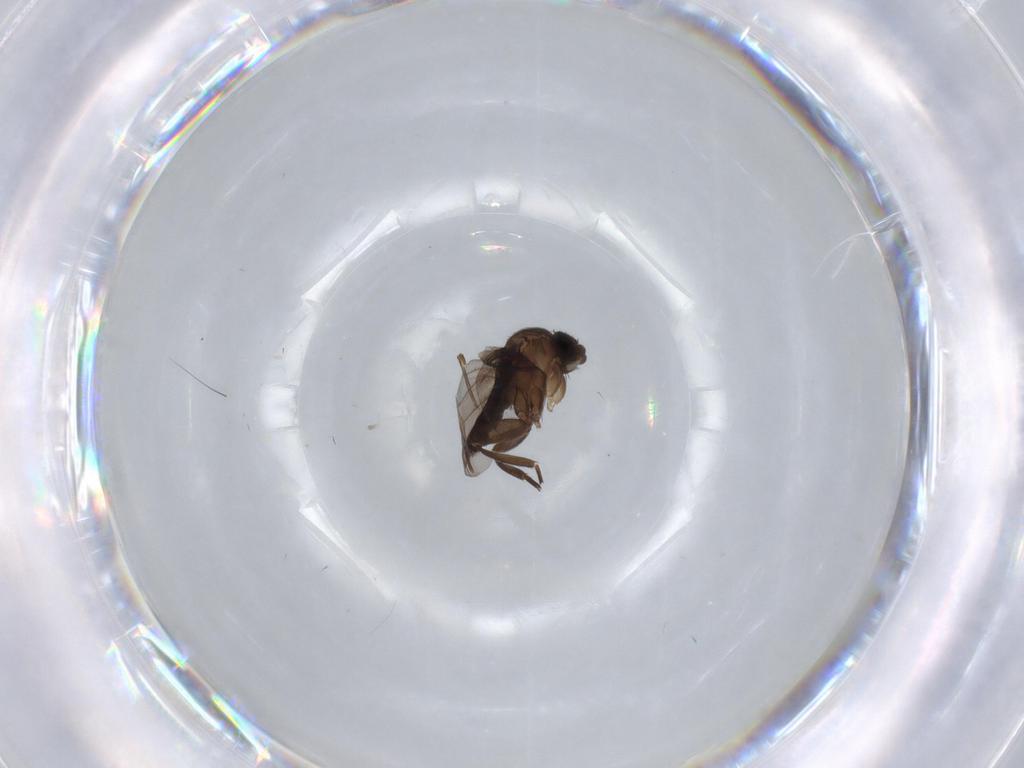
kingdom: Animalia
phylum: Arthropoda
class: Insecta
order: Diptera
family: Phoridae
